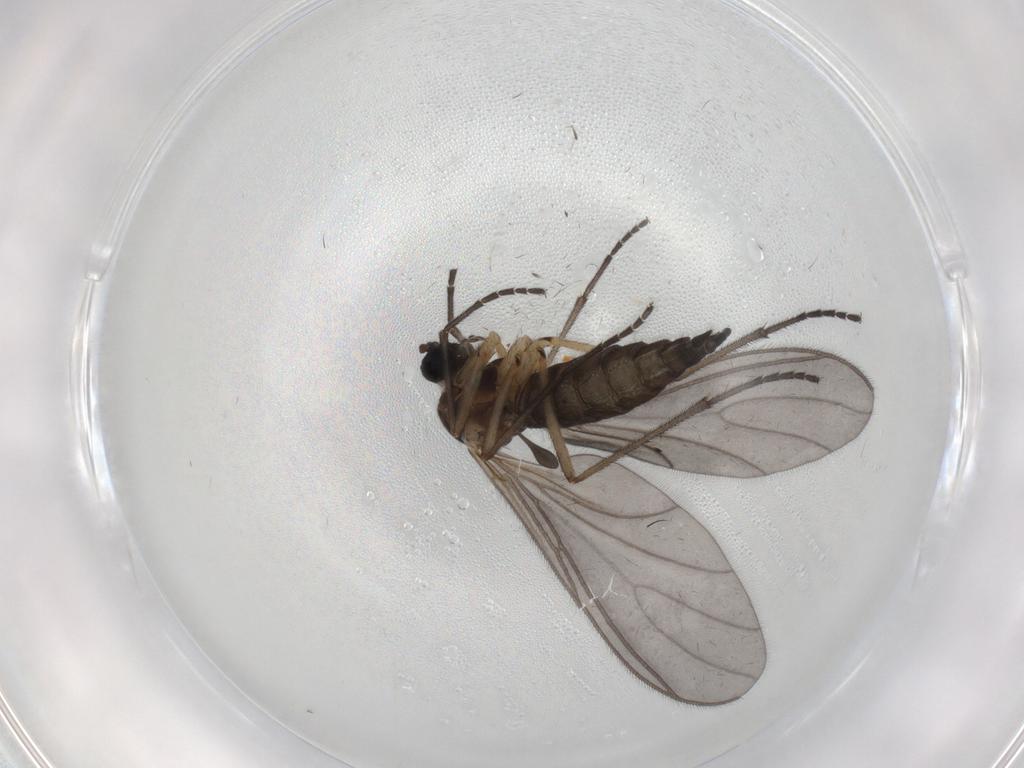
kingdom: Animalia
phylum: Arthropoda
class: Insecta
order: Diptera
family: Sciaridae
